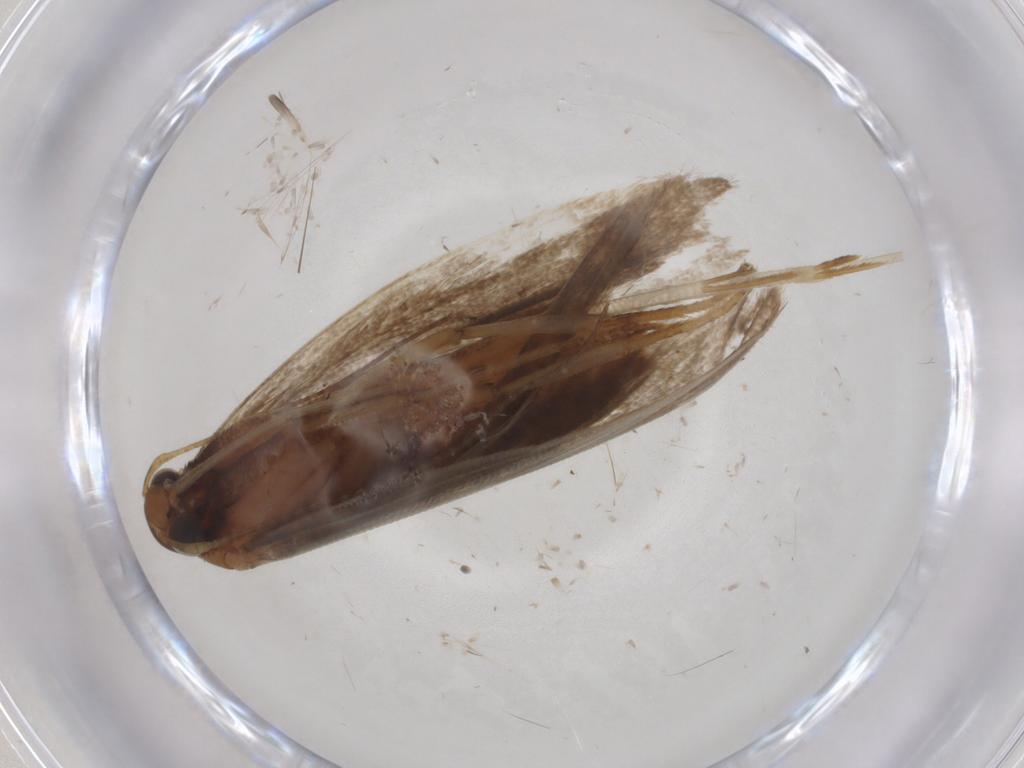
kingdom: Animalia
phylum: Arthropoda
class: Insecta
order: Lepidoptera
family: Gelechiidae
